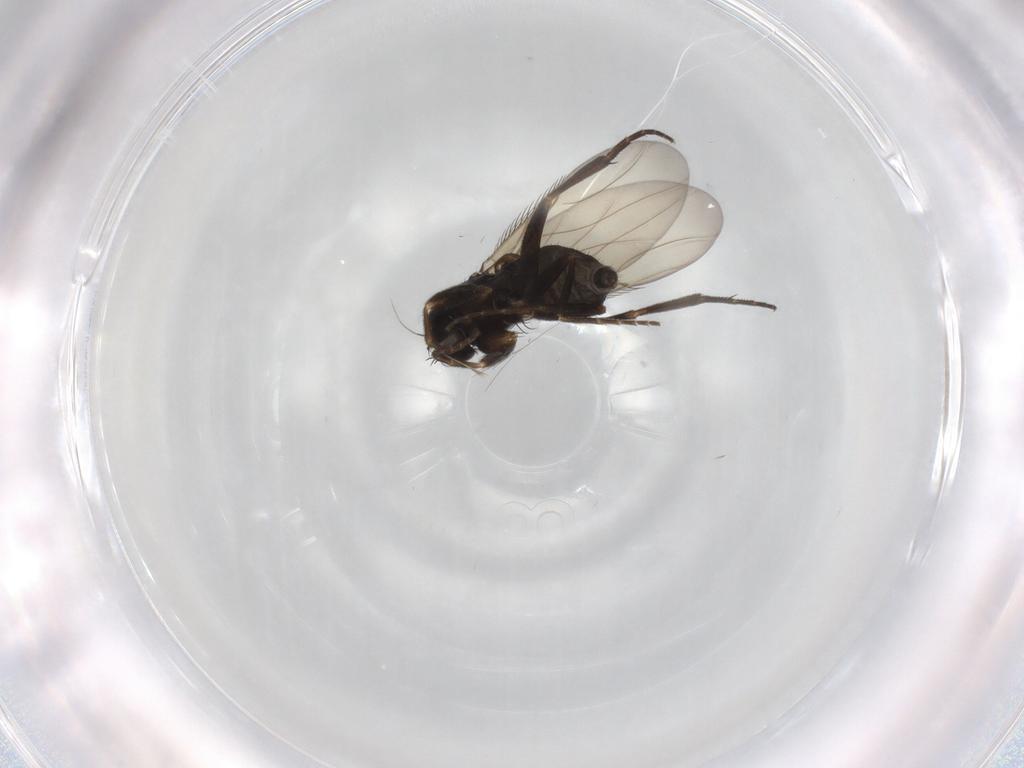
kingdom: Animalia
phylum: Arthropoda
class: Insecta
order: Diptera
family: Phoridae
